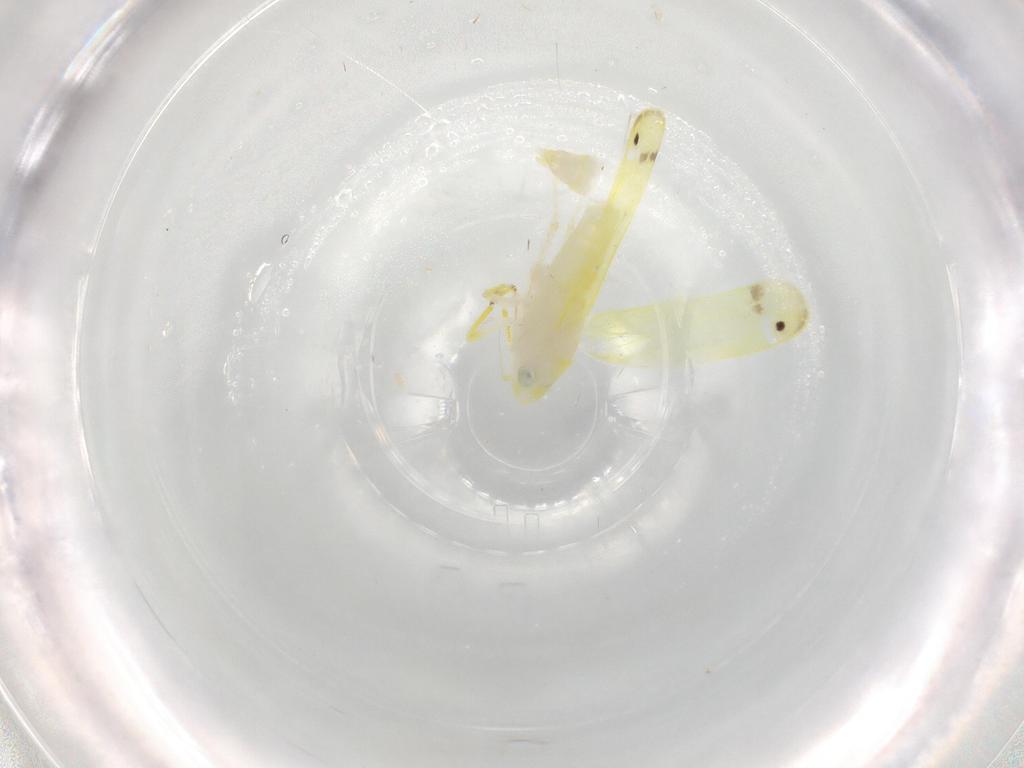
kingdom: Animalia
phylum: Arthropoda
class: Insecta
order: Hemiptera
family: Cicadellidae
